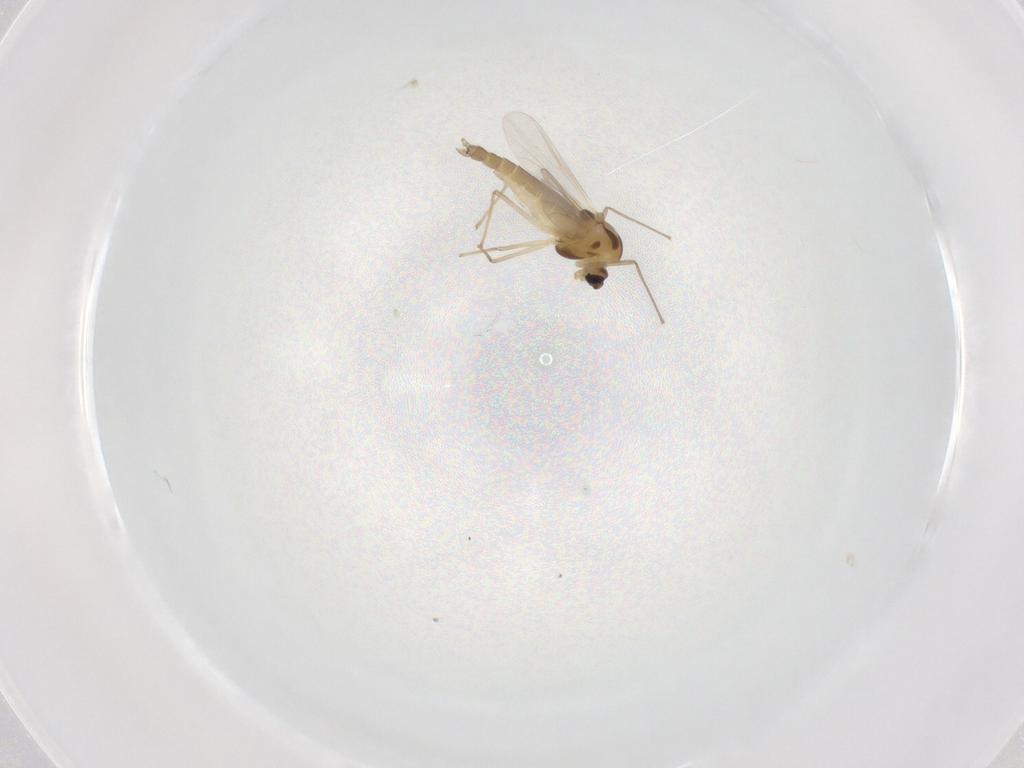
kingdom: Animalia
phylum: Arthropoda
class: Insecta
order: Diptera
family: Chironomidae
